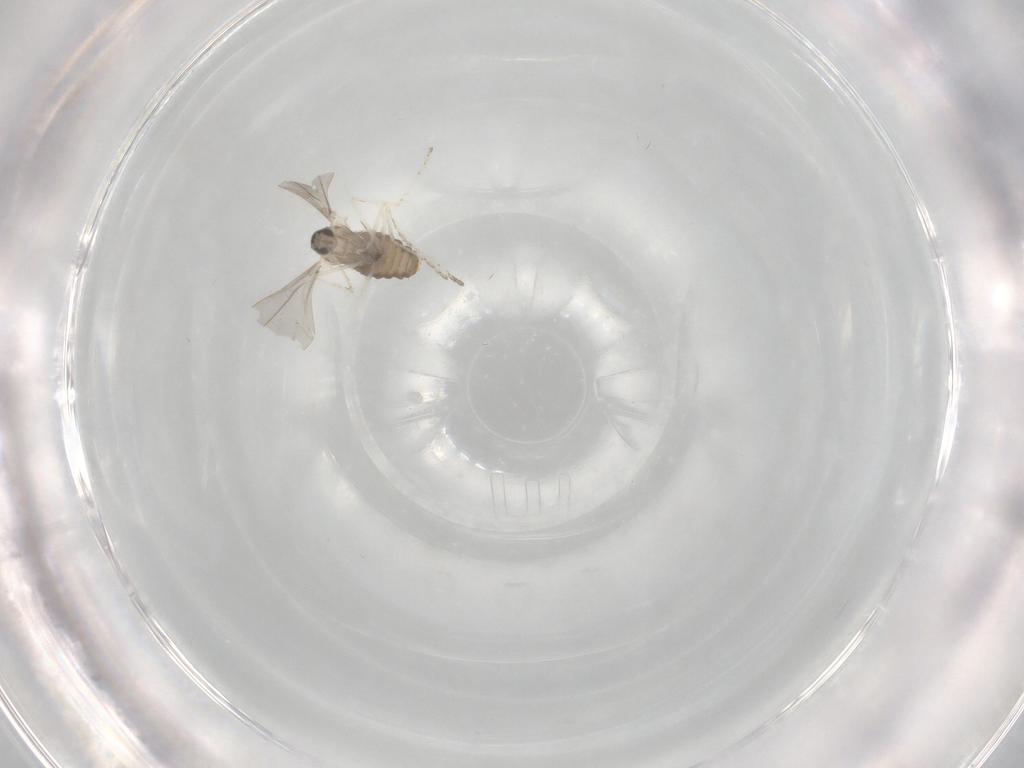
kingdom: Animalia
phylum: Arthropoda
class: Insecta
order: Diptera
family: Cecidomyiidae
